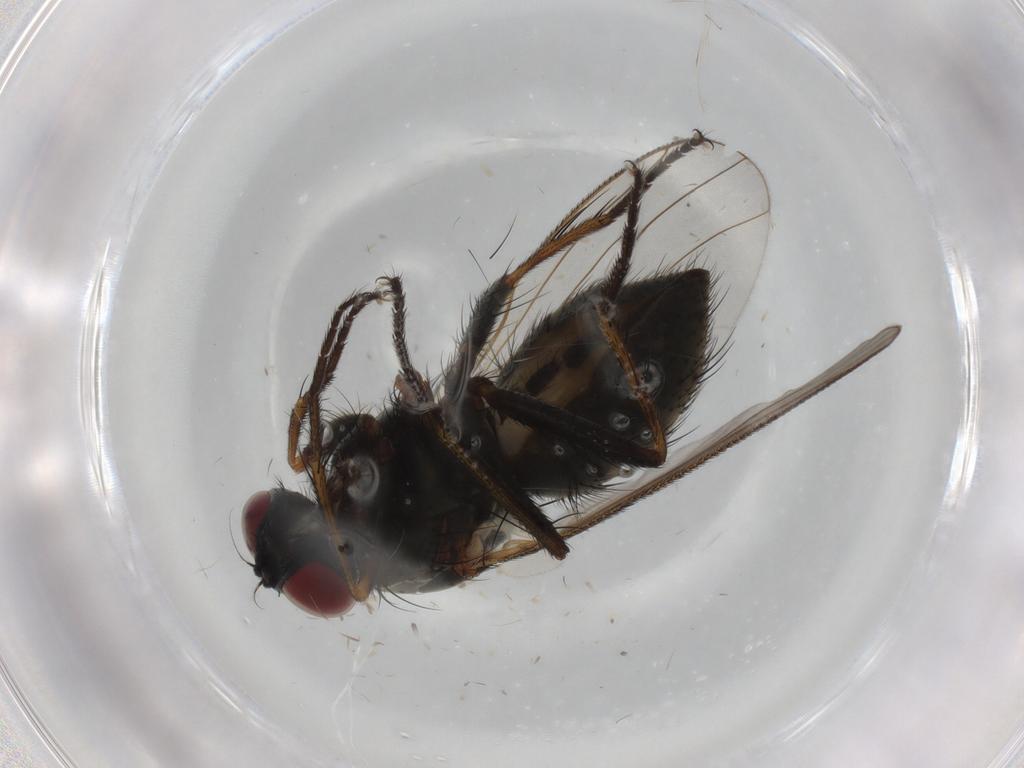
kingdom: Animalia
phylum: Arthropoda
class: Insecta
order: Diptera
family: Muscidae
